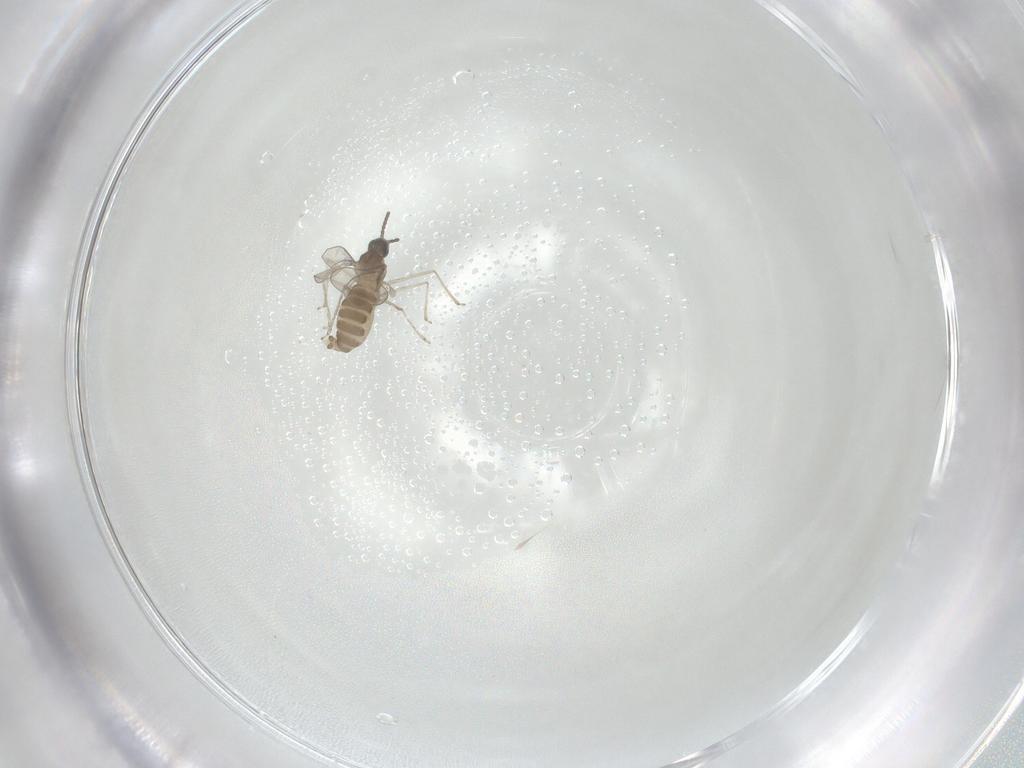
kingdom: Animalia
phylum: Arthropoda
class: Insecta
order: Diptera
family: Cecidomyiidae
